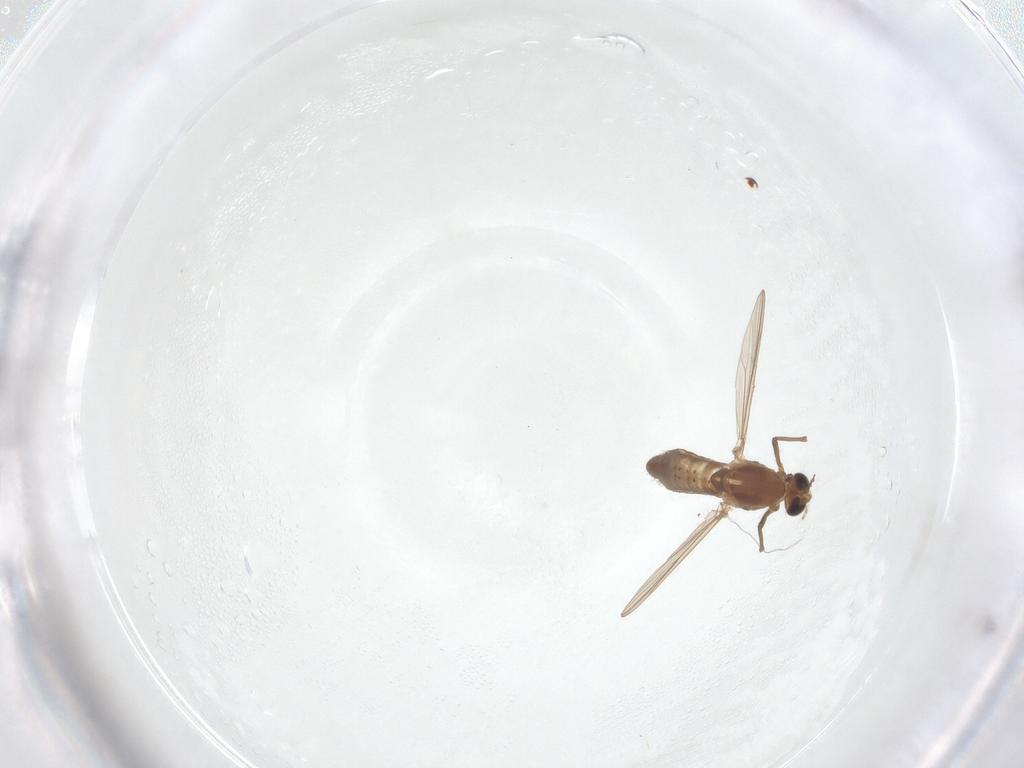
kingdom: Animalia
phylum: Arthropoda
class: Insecta
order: Diptera
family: Chironomidae
